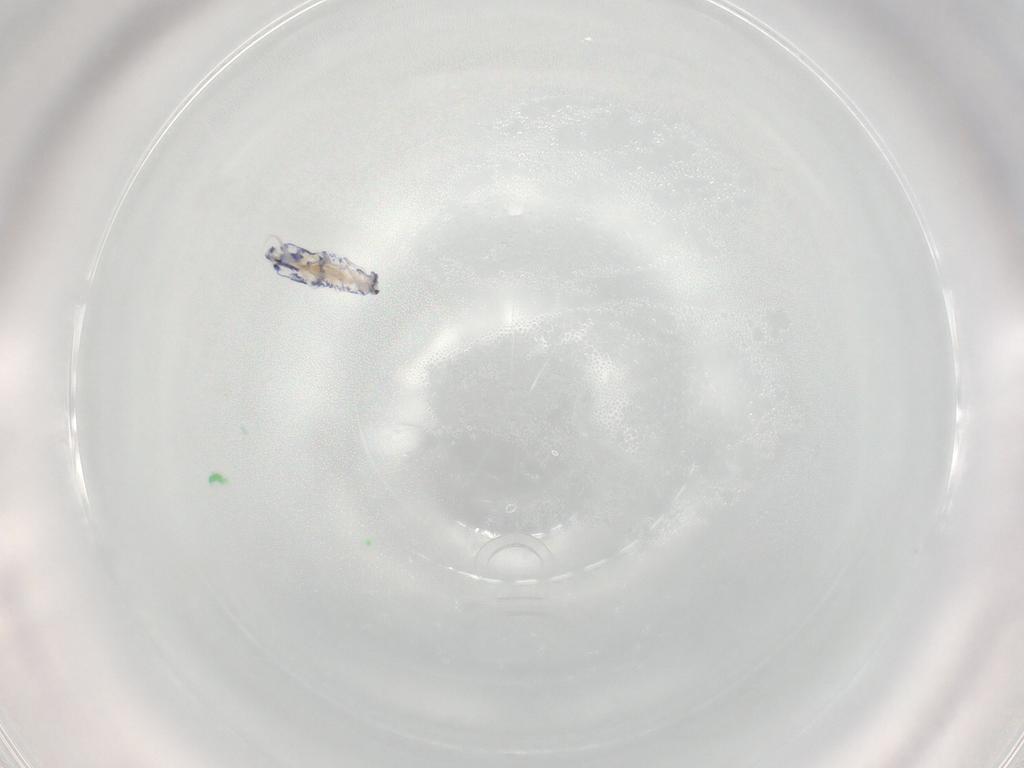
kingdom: Animalia
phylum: Arthropoda
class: Collembola
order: Entomobryomorpha
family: Entomobryidae
